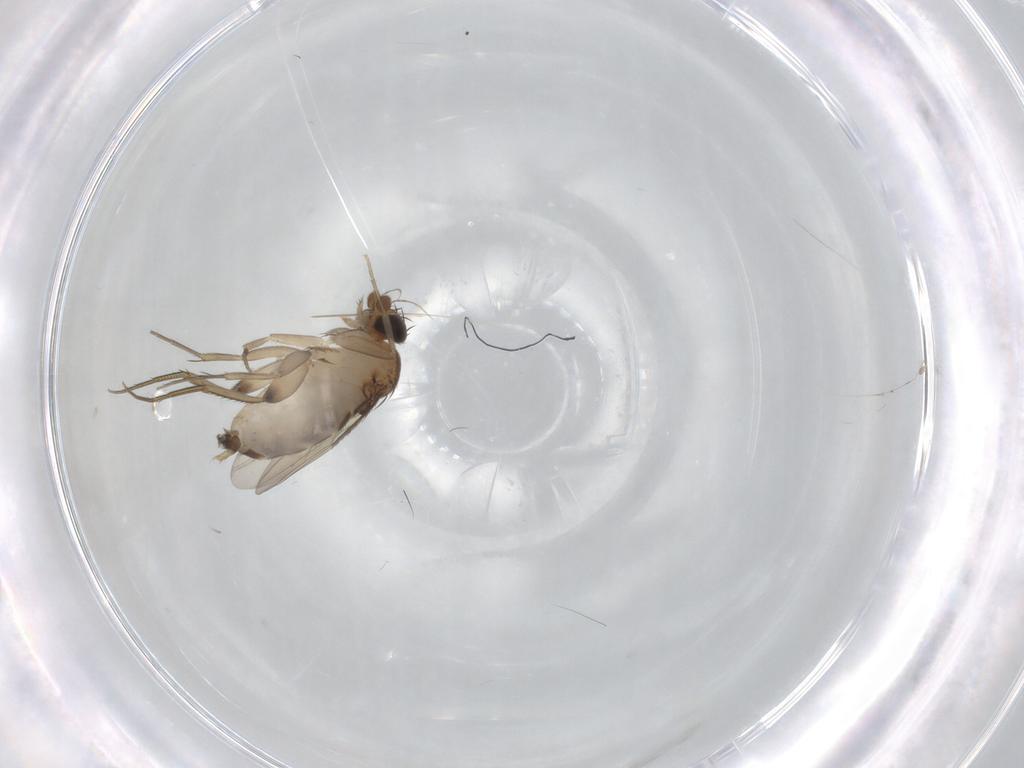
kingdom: Animalia
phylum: Arthropoda
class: Insecta
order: Diptera
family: Phoridae
